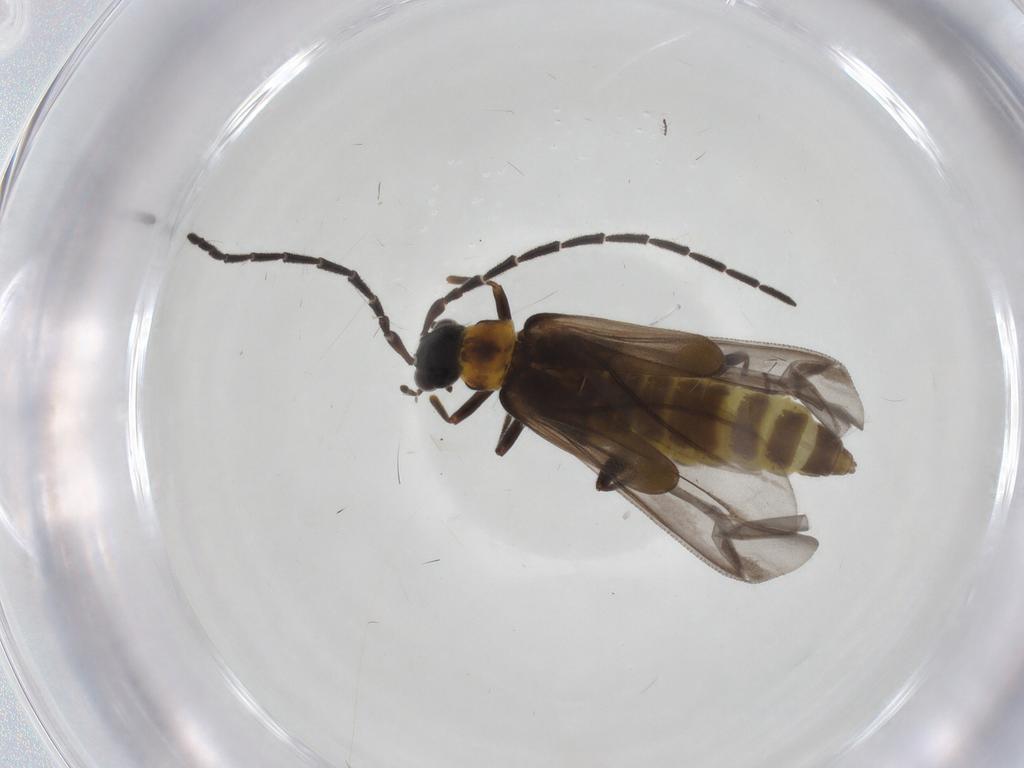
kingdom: Animalia
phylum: Arthropoda
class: Insecta
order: Coleoptera
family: Cantharidae
